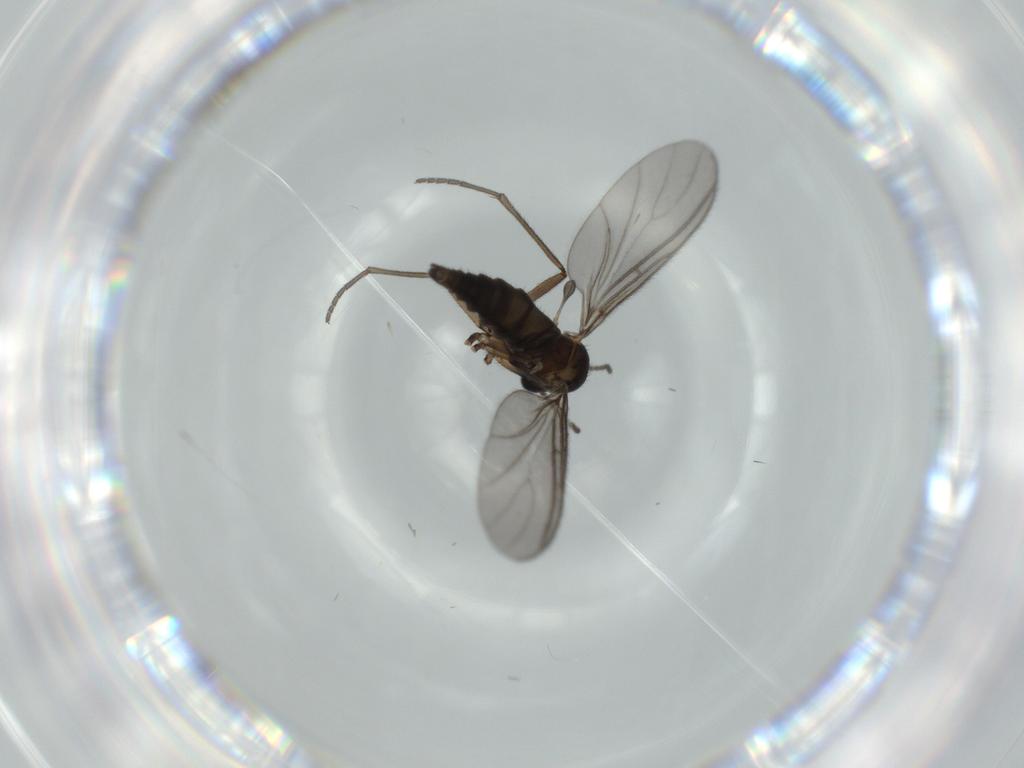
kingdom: Animalia
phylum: Arthropoda
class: Insecta
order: Diptera
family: Sciaridae
